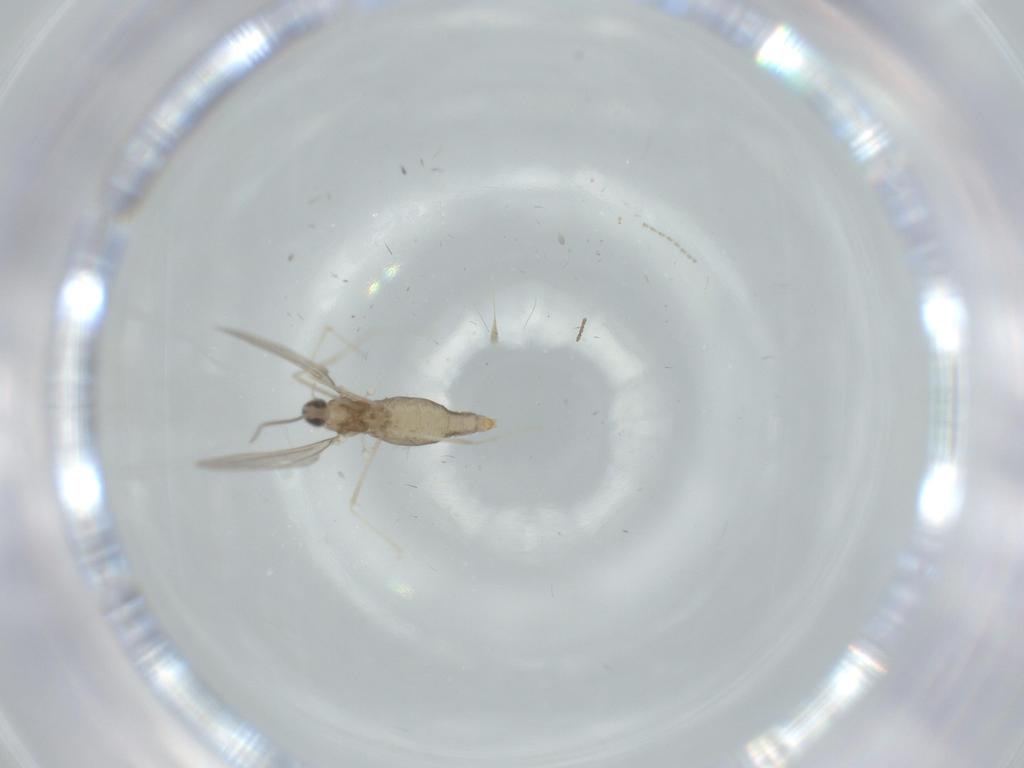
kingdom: Animalia
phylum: Arthropoda
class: Insecta
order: Diptera
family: Cecidomyiidae
